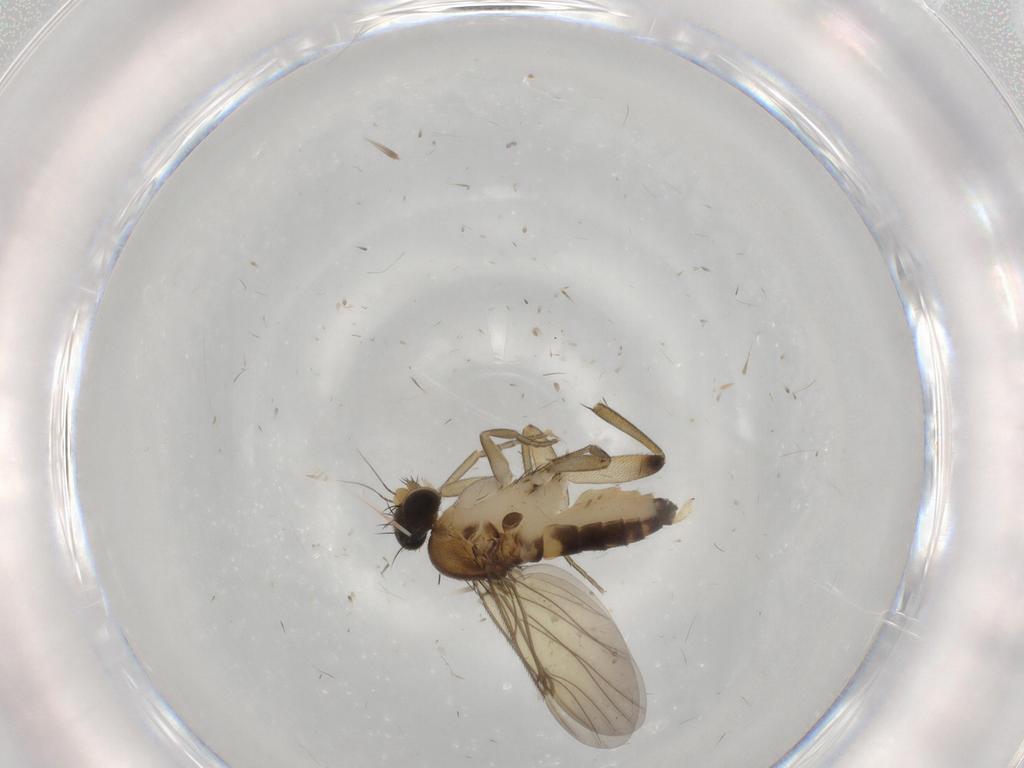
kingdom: Animalia
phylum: Arthropoda
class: Insecta
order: Diptera
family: Phoridae
